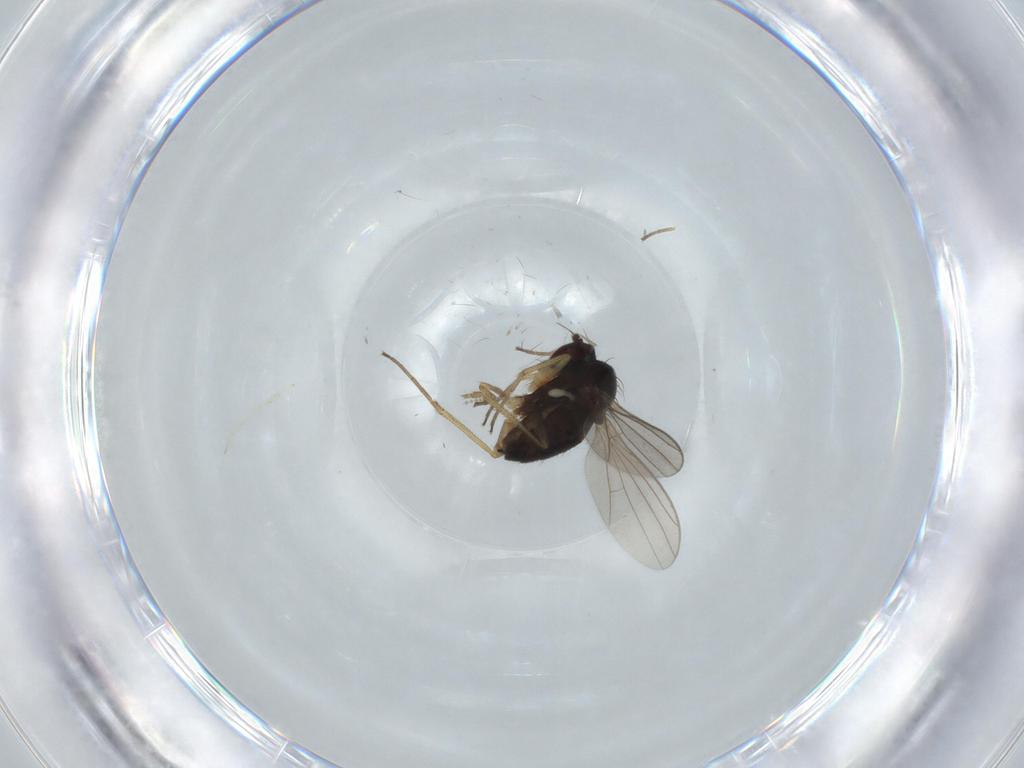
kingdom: Animalia
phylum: Arthropoda
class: Insecta
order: Diptera
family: Dolichopodidae
